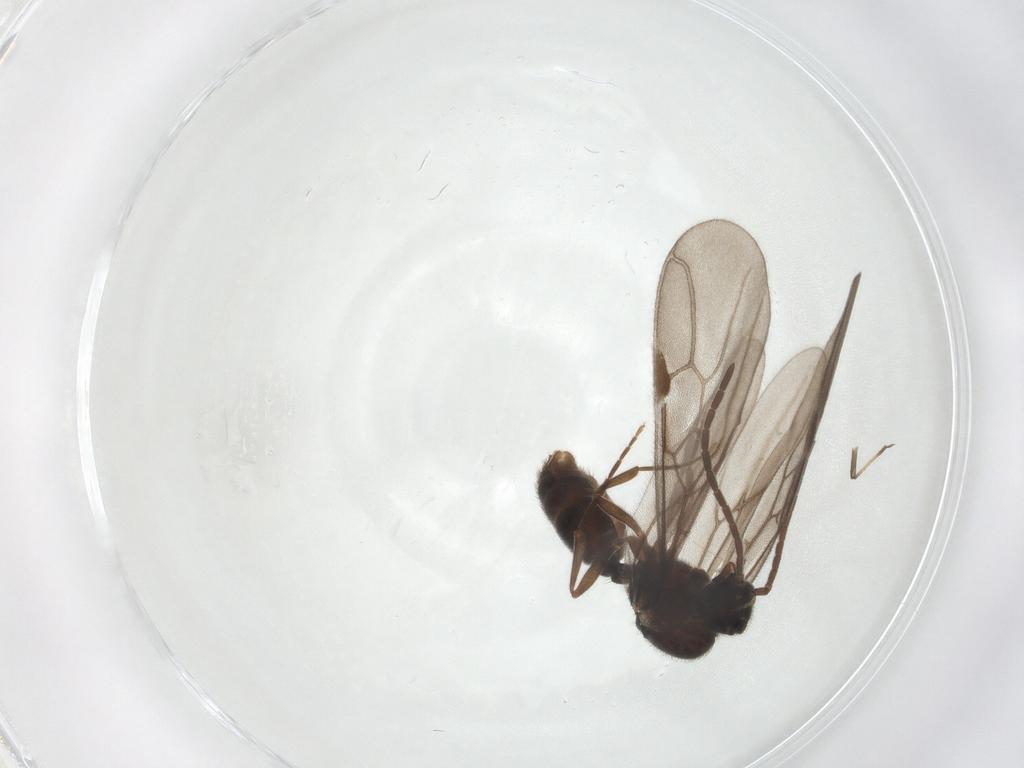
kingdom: Animalia
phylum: Arthropoda
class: Insecta
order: Hymenoptera
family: Formicidae
